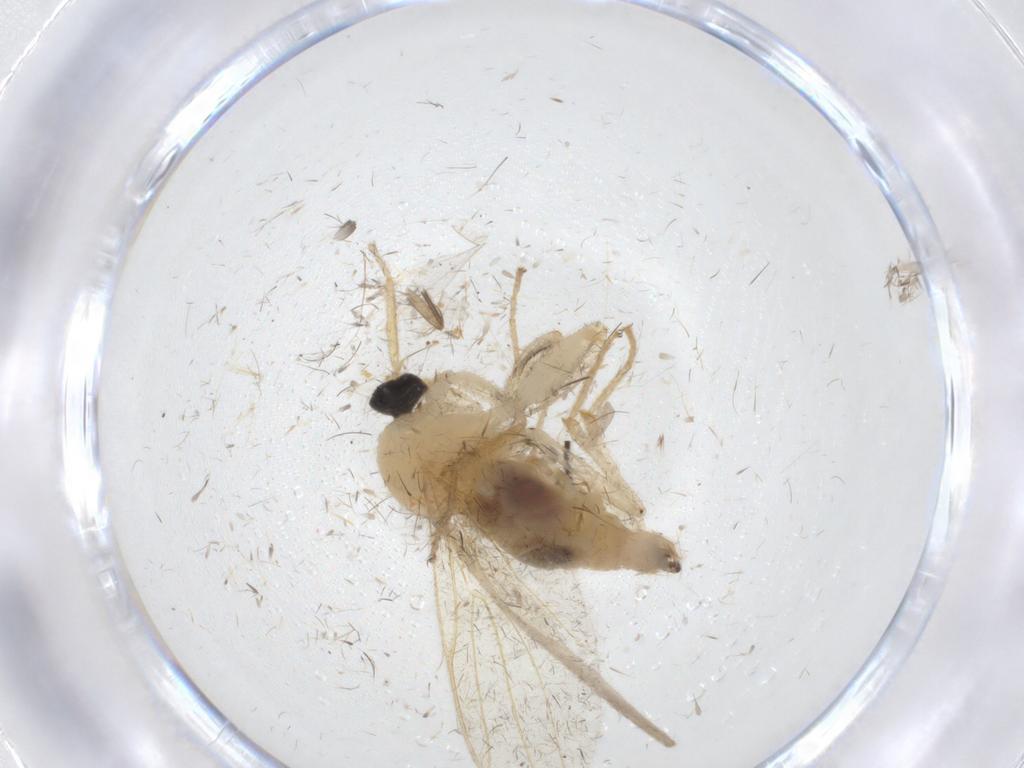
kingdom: Animalia
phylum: Arthropoda
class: Insecta
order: Diptera
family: Hybotidae
